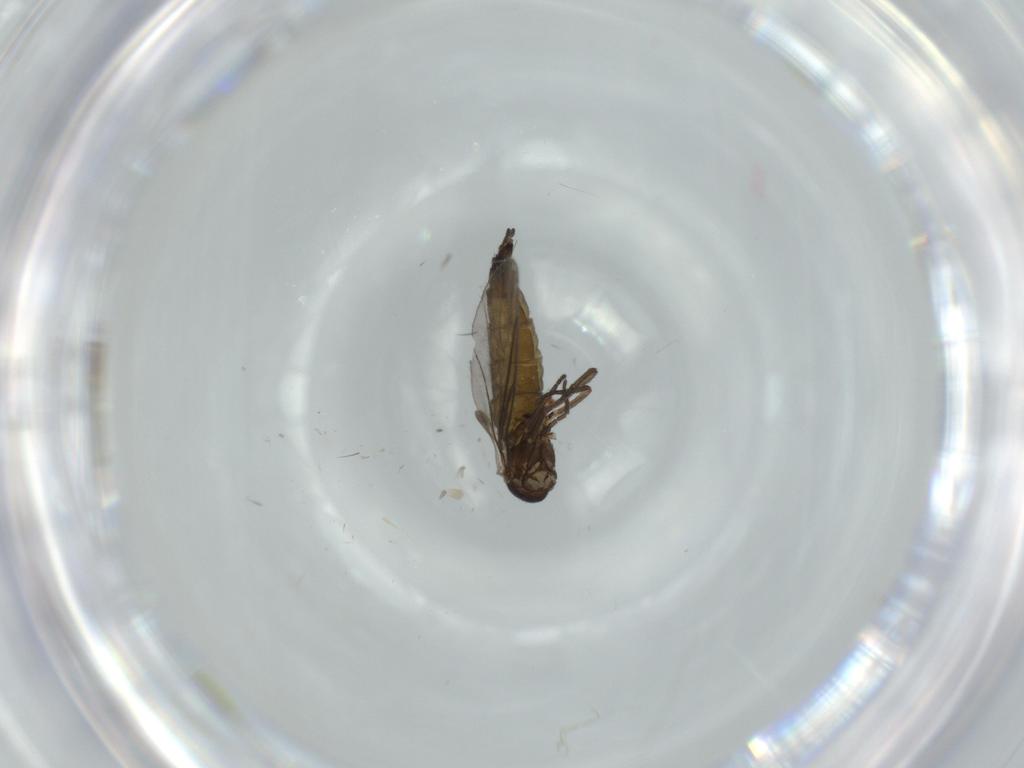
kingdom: Animalia
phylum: Arthropoda
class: Insecta
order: Diptera
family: Sciaridae
